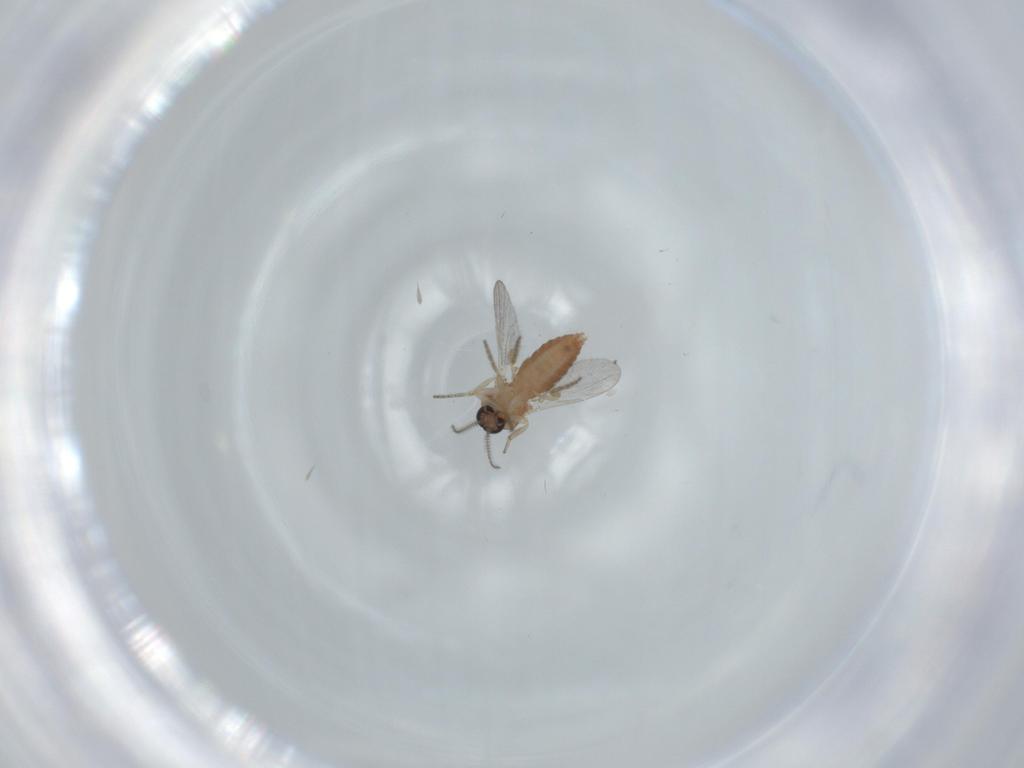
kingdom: Animalia
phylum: Arthropoda
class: Insecta
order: Diptera
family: Ceratopogonidae
